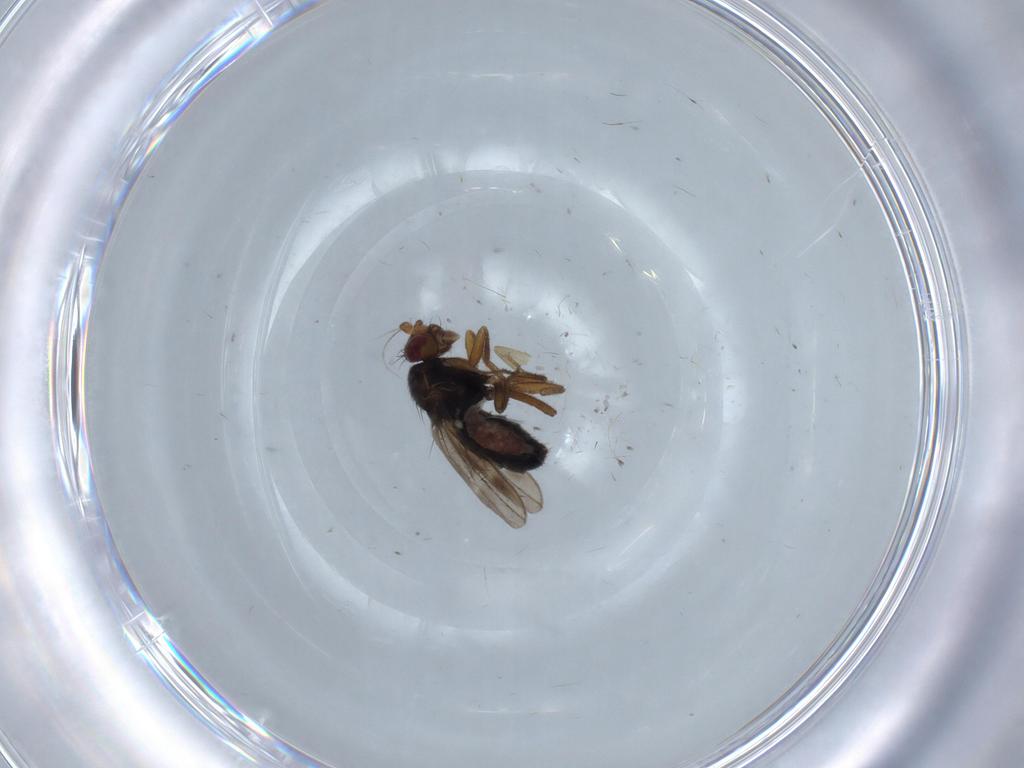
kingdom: Animalia
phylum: Arthropoda
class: Insecta
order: Diptera
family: Sphaeroceridae
